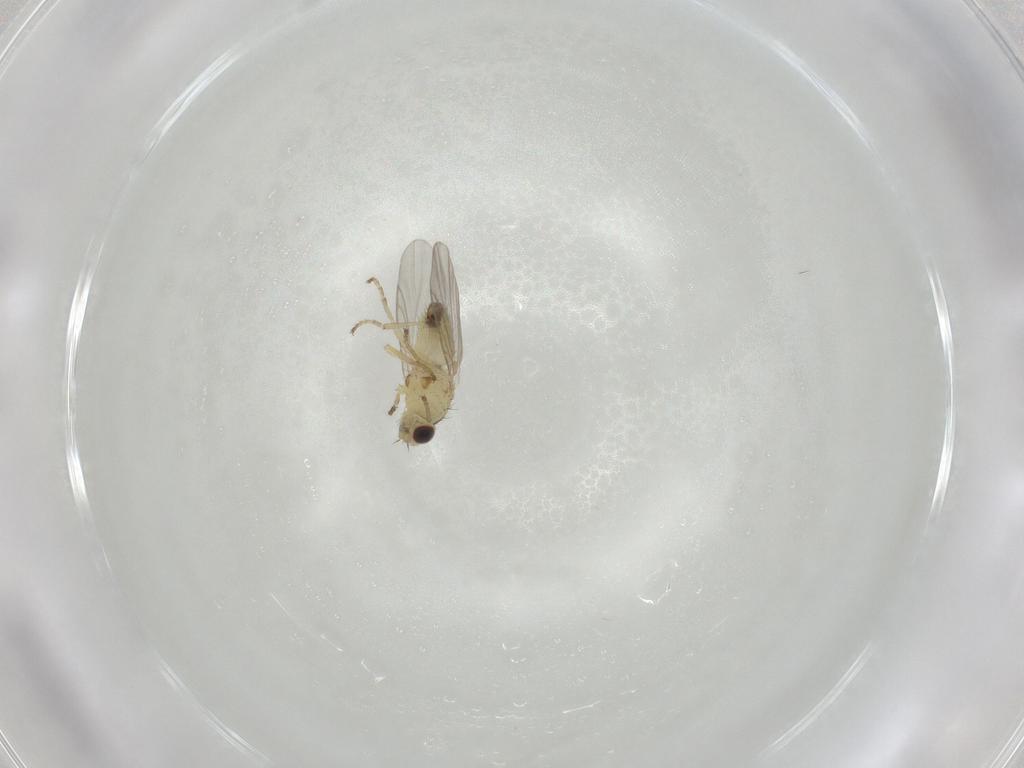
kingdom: Animalia
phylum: Arthropoda
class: Insecta
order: Diptera
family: Agromyzidae
